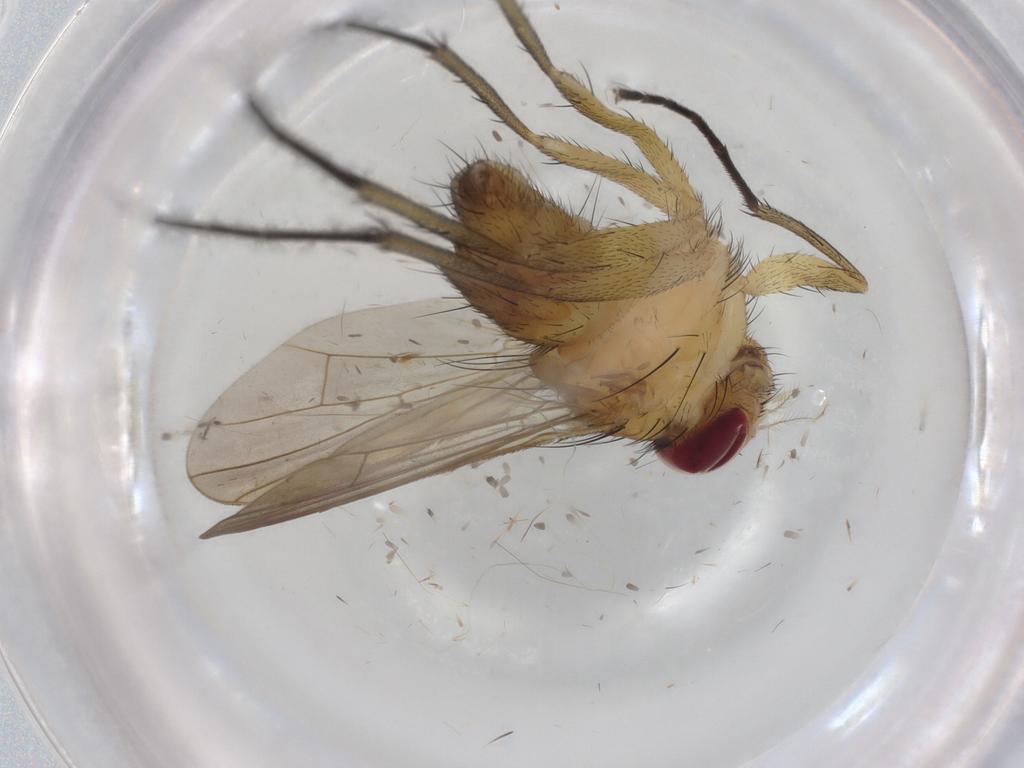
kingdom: Animalia
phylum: Arthropoda
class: Insecta
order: Diptera
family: Calliphoridae
